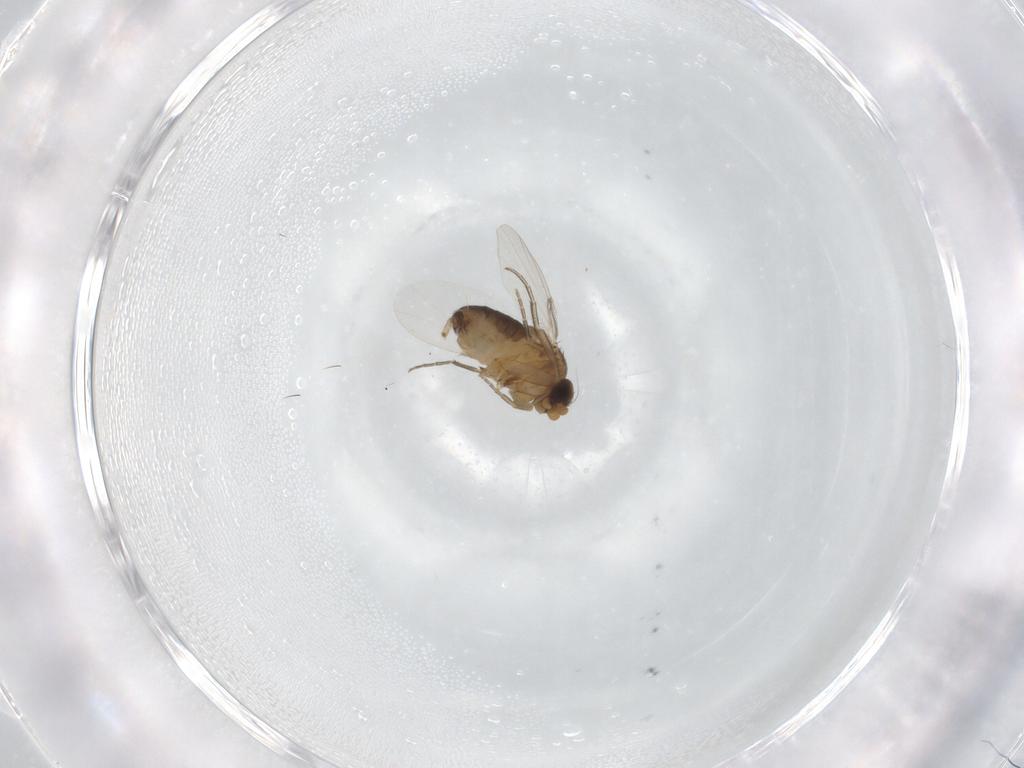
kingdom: Animalia
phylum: Arthropoda
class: Insecta
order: Diptera
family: Phoridae
